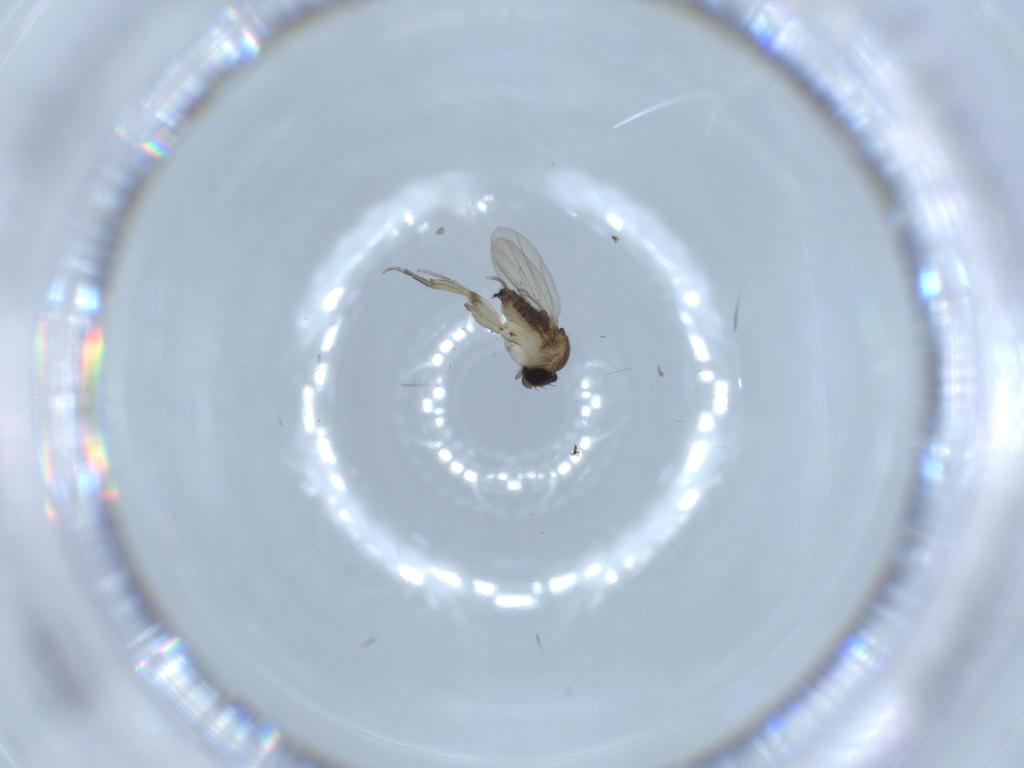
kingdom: Animalia
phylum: Arthropoda
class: Insecta
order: Diptera
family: Phoridae
